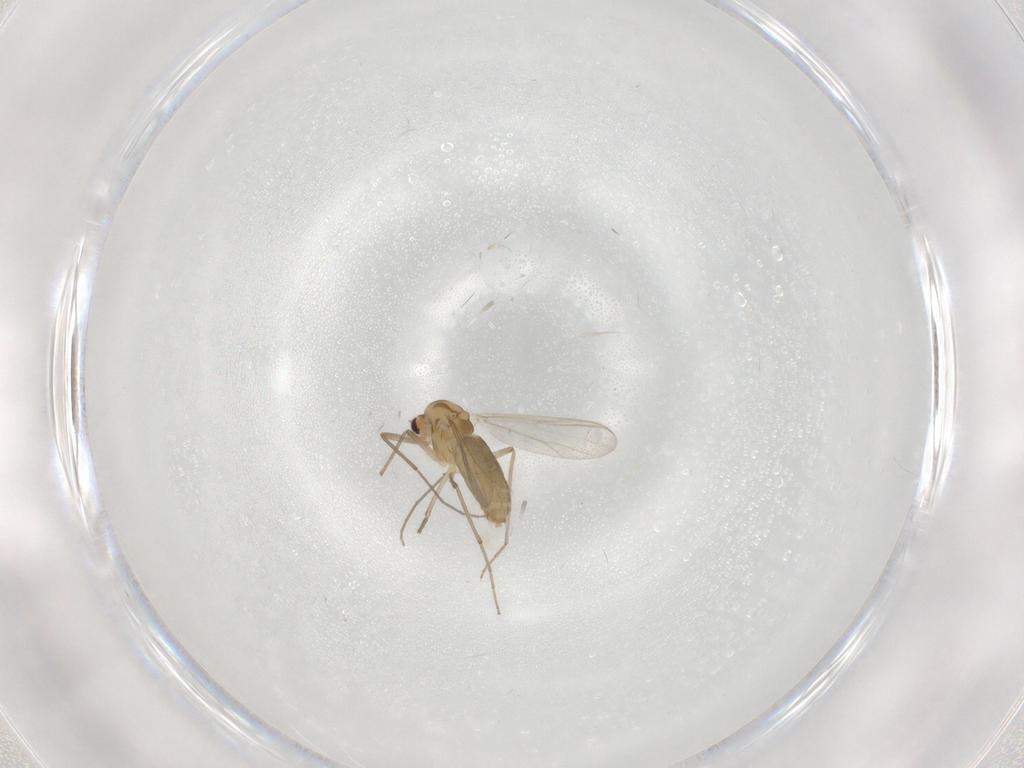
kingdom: Animalia
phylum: Arthropoda
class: Insecta
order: Diptera
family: Chironomidae
